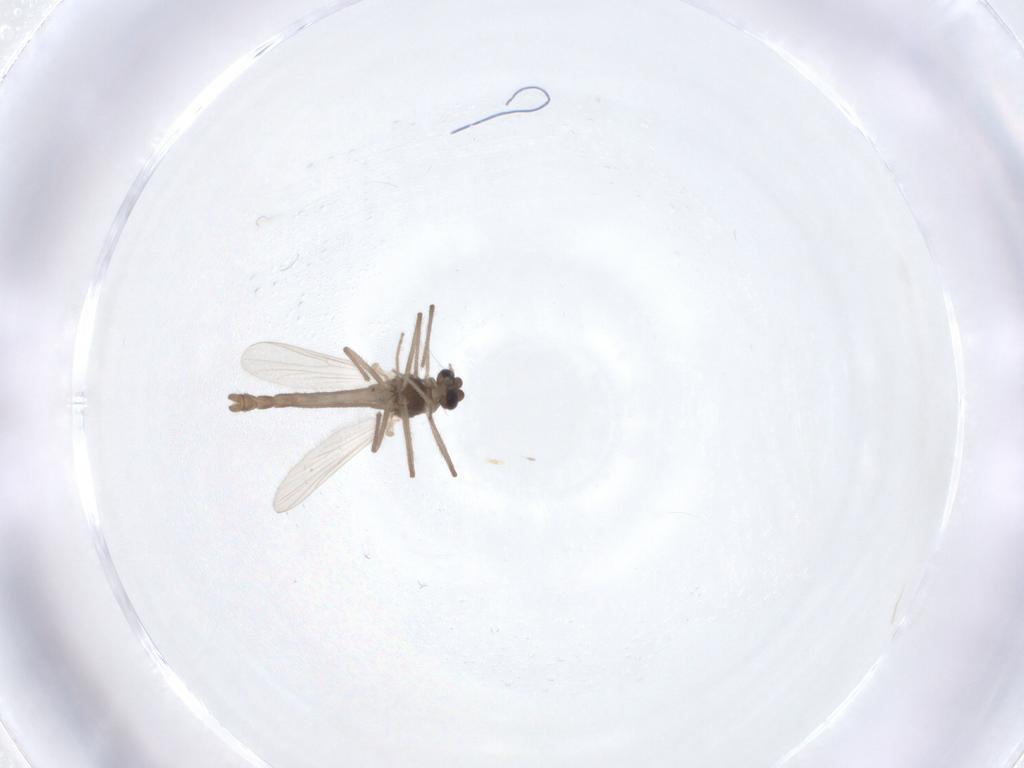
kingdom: Animalia
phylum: Arthropoda
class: Insecta
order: Diptera
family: Chironomidae
